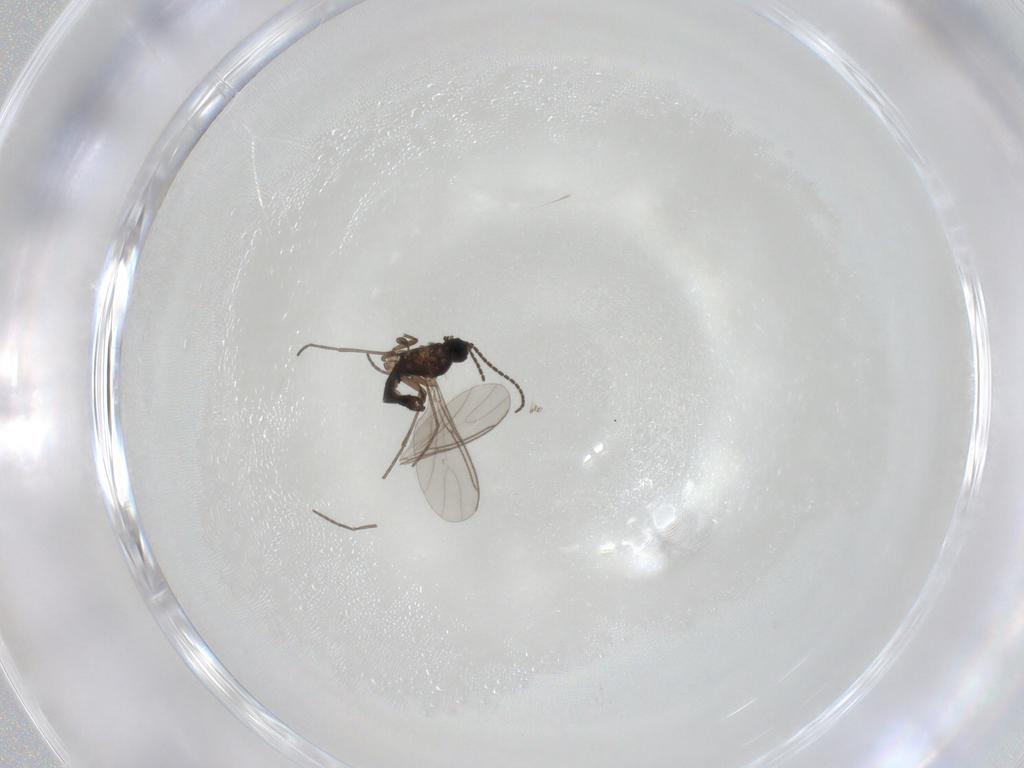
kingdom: Animalia
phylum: Arthropoda
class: Insecta
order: Diptera
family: Sciaridae
